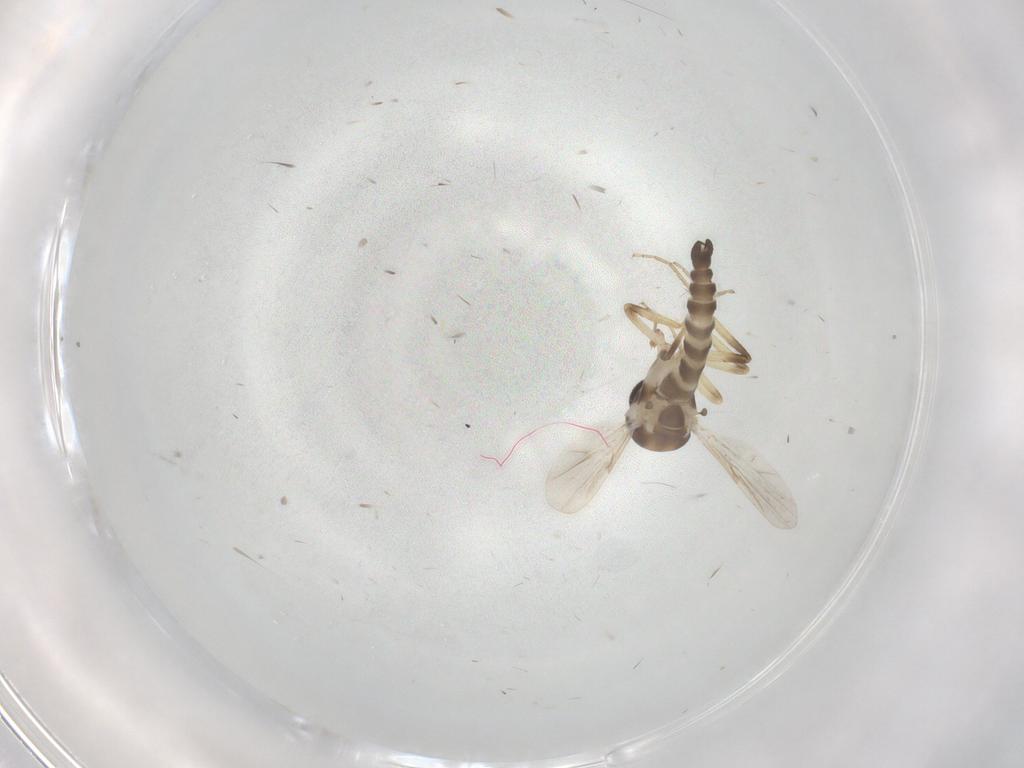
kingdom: Animalia
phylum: Arthropoda
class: Insecta
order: Diptera
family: Ceratopogonidae
